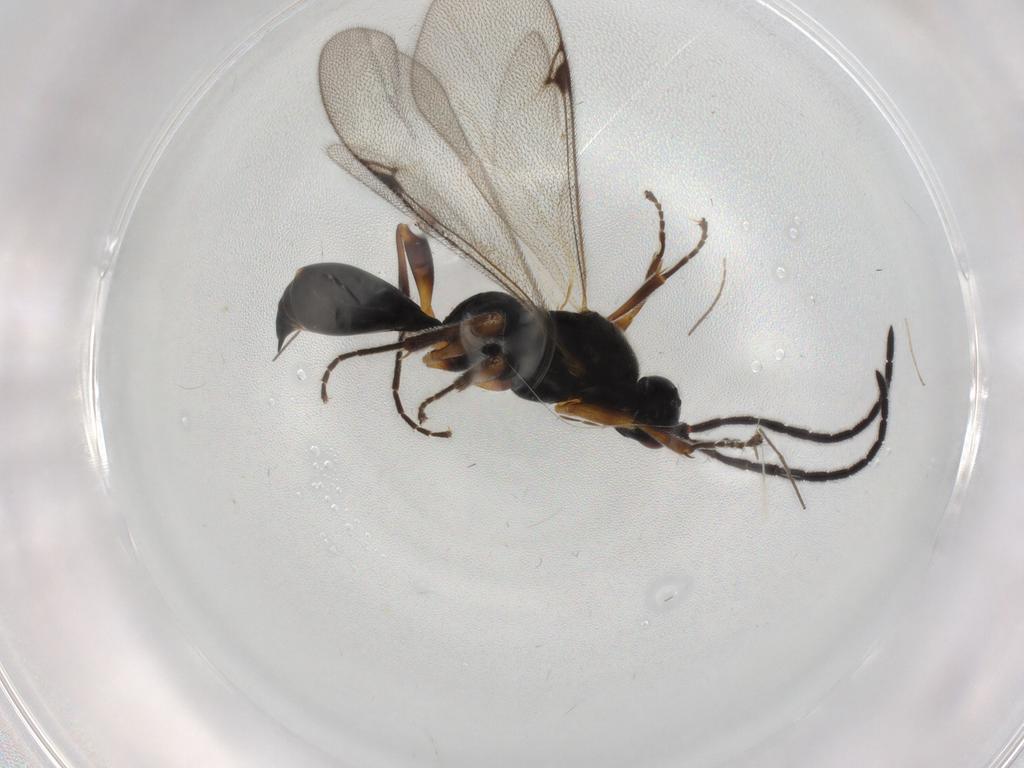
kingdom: Animalia
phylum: Arthropoda
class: Insecta
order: Hymenoptera
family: Proctotrupidae
